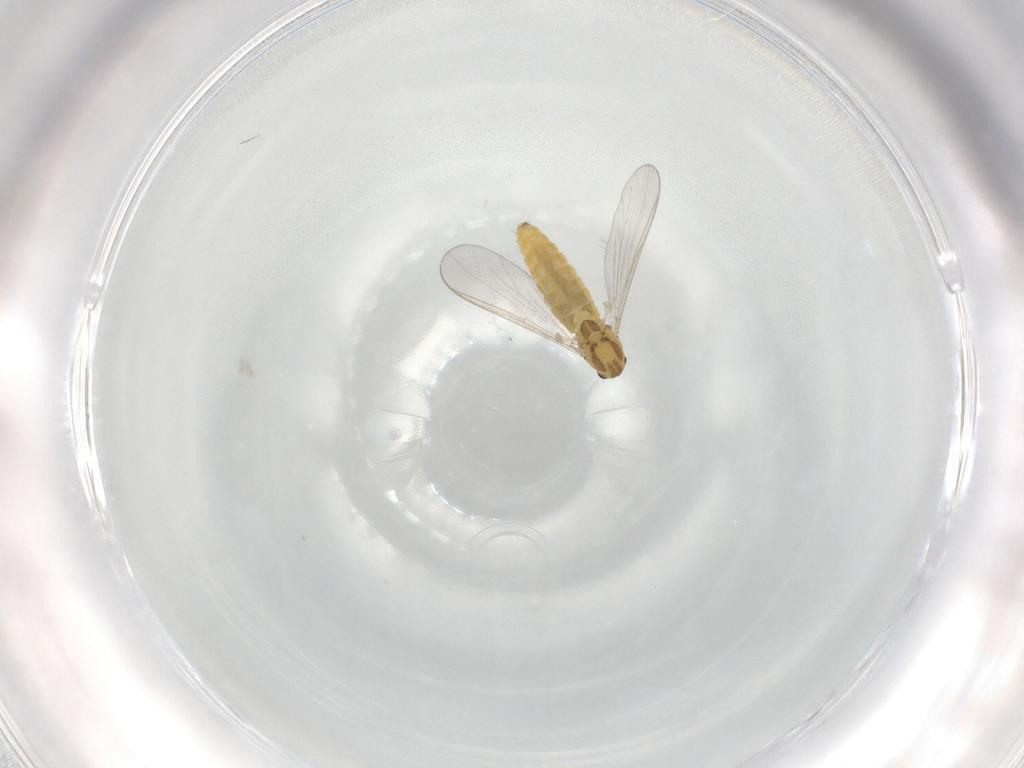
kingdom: Animalia
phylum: Arthropoda
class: Insecta
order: Diptera
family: Chironomidae
